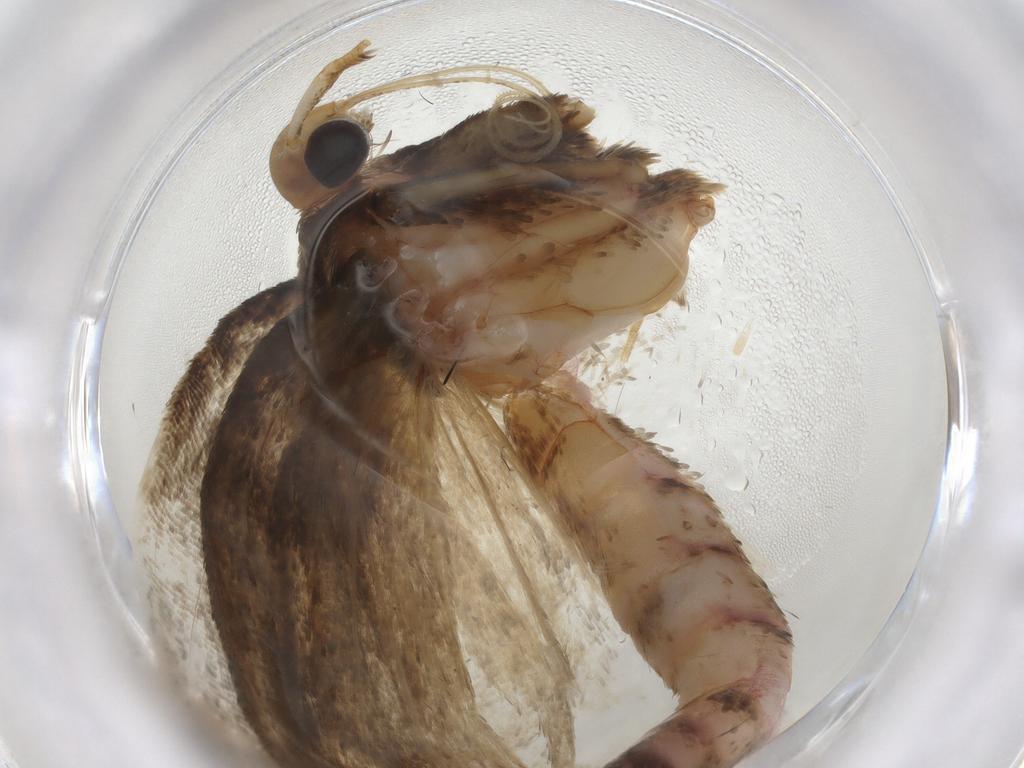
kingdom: Animalia
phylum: Arthropoda
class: Insecta
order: Lepidoptera
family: Autostichidae
